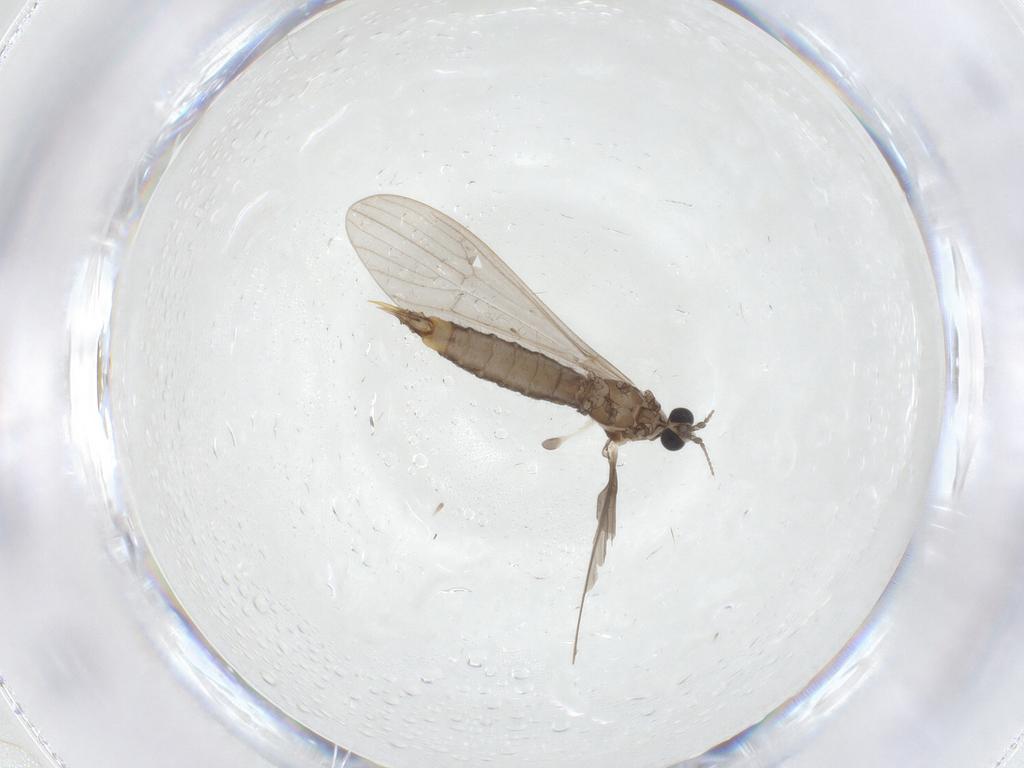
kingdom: Animalia
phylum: Arthropoda
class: Insecta
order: Diptera
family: Limoniidae
